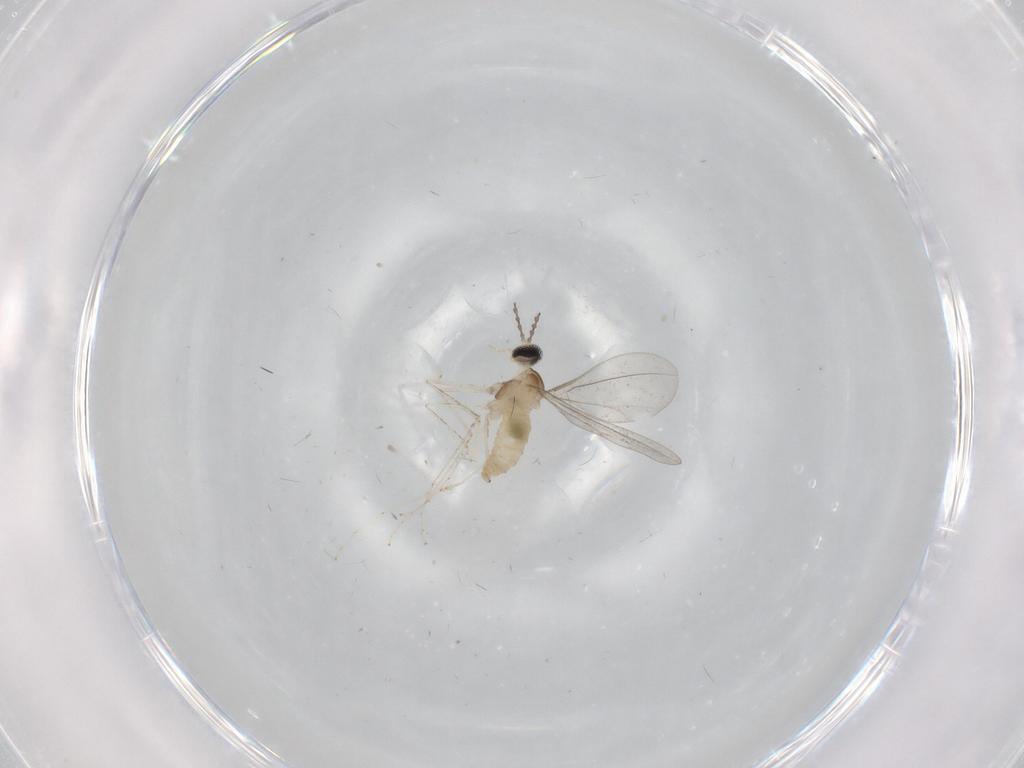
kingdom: Animalia
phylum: Arthropoda
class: Insecta
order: Diptera
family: Cecidomyiidae
